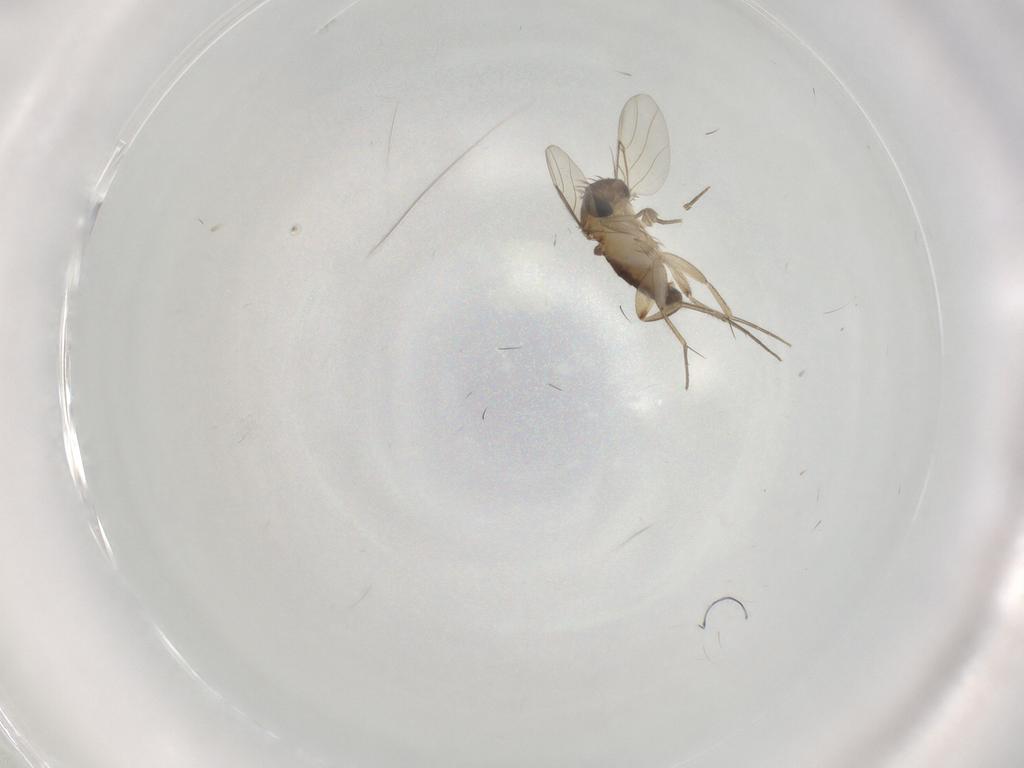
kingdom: Animalia
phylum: Arthropoda
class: Insecta
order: Diptera
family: Phoridae
